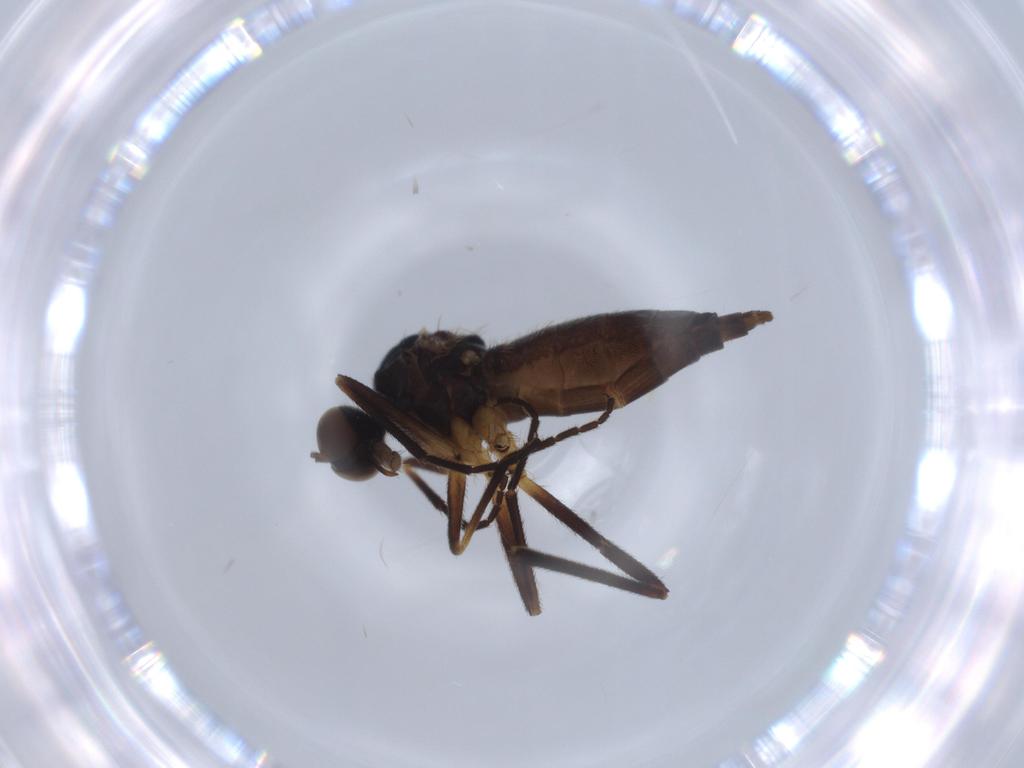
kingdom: Animalia
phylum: Arthropoda
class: Insecta
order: Diptera
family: Empididae
